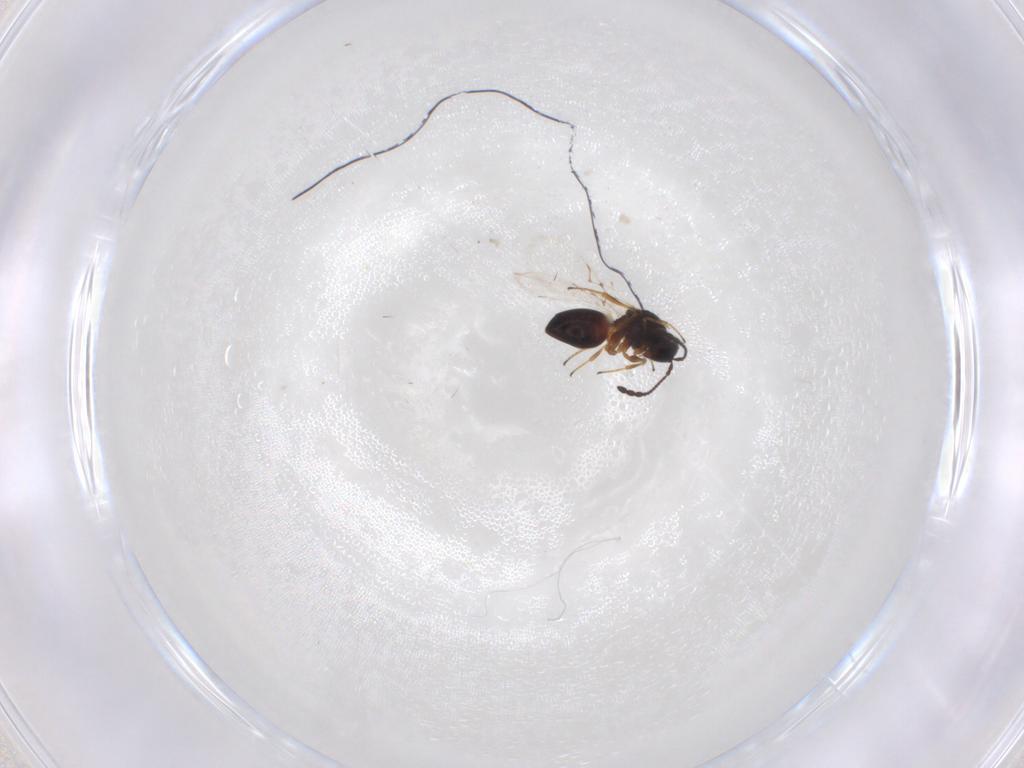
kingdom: Animalia
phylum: Arthropoda
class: Insecta
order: Hymenoptera
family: Figitidae
